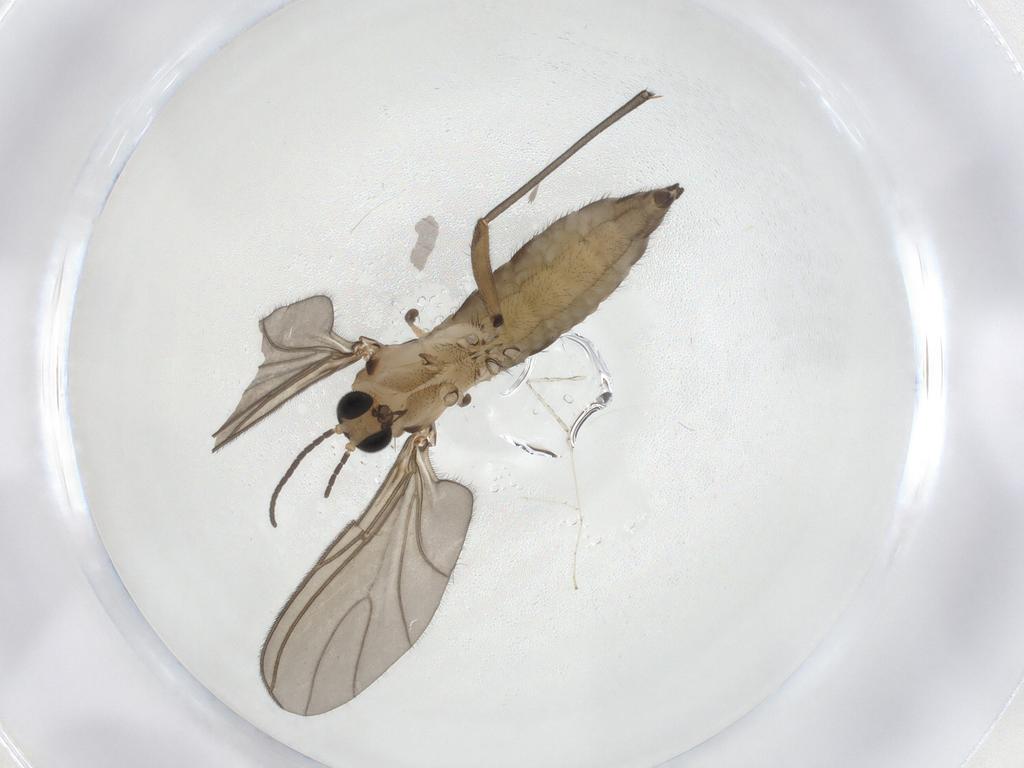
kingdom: Animalia
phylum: Arthropoda
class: Insecta
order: Diptera
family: Sciaridae
